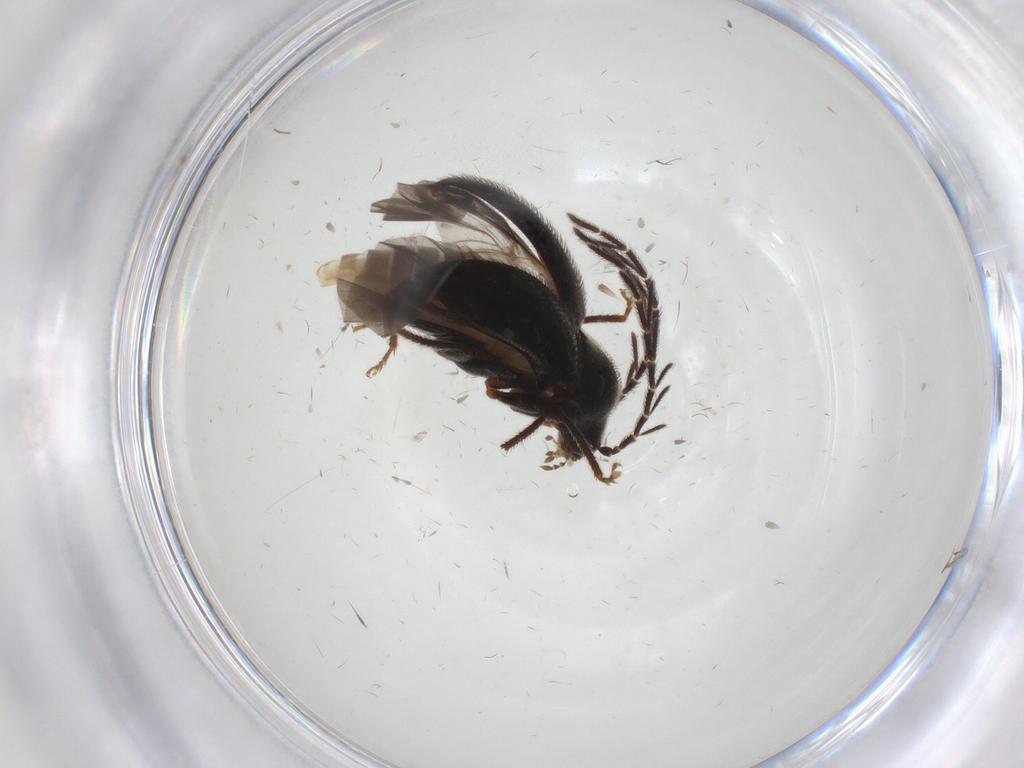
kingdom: Animalia
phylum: Arthropoda
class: Insecta
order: Coleoptera
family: Ptilodactylidae
